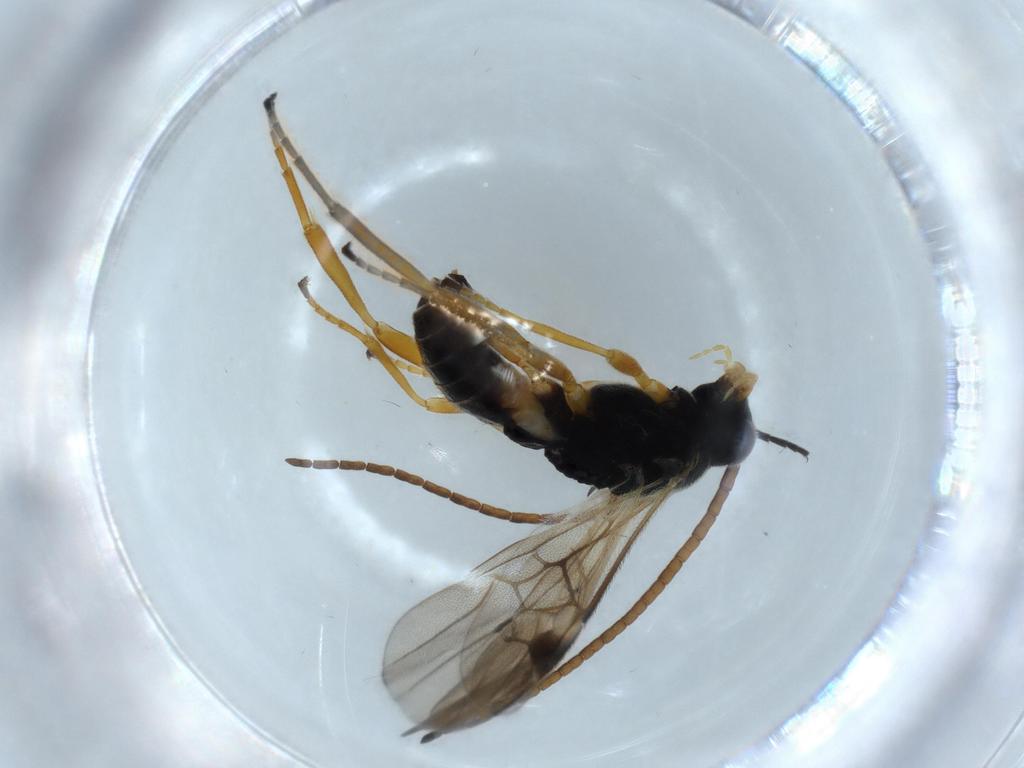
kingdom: Animalia
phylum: Arthropoda
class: Insecta
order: Hymenoptera
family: Braconidae
